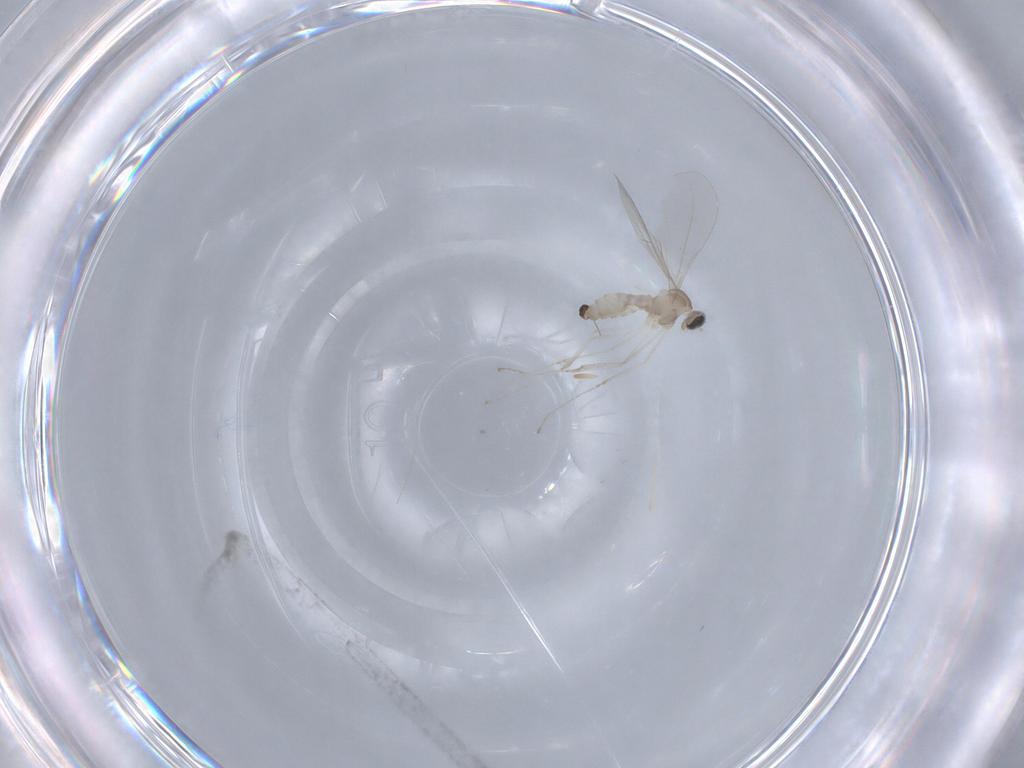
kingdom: Animalia
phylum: Arthropoda
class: Insecta
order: Diptera
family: Cecidomyiidae
